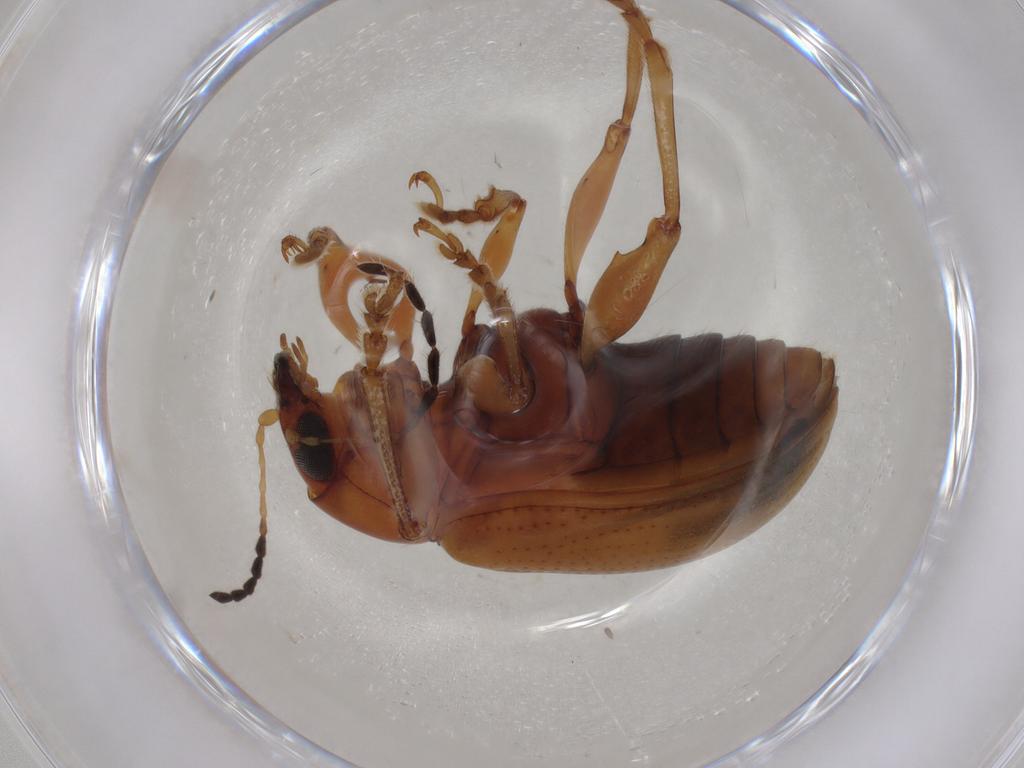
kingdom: Animalia
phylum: Arthropoda
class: Insecta
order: Coleoptera
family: Chrysomelidae
